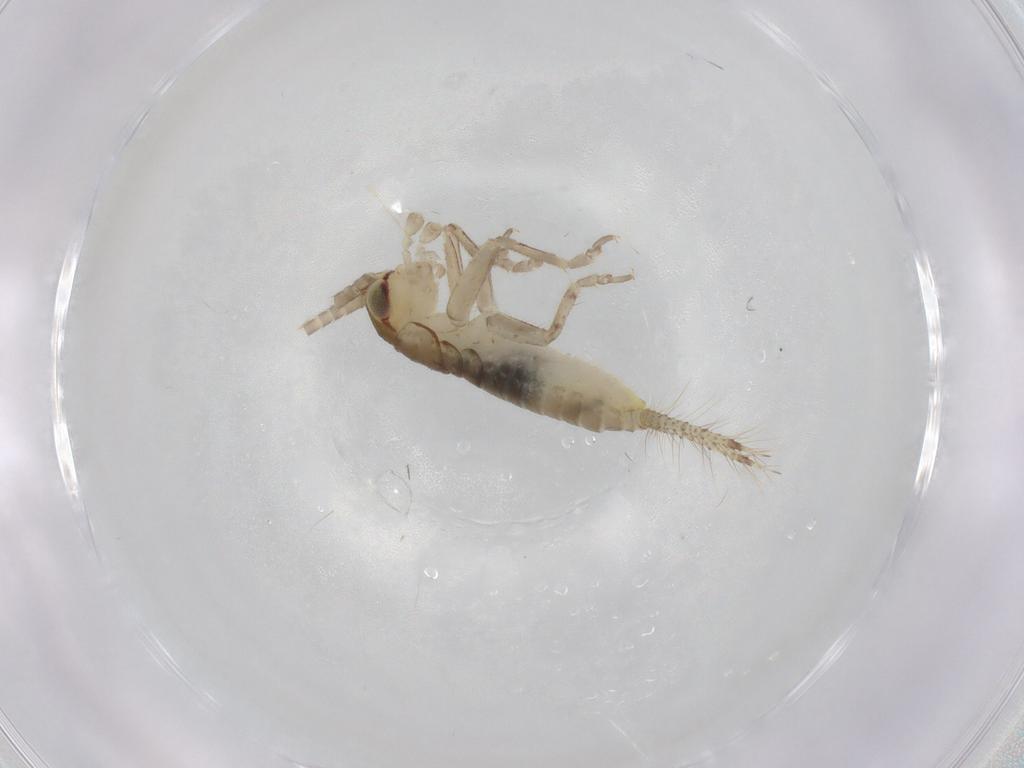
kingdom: Animalia
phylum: Arthropoda
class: Insecta
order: Orthoptera
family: Gryllidae
